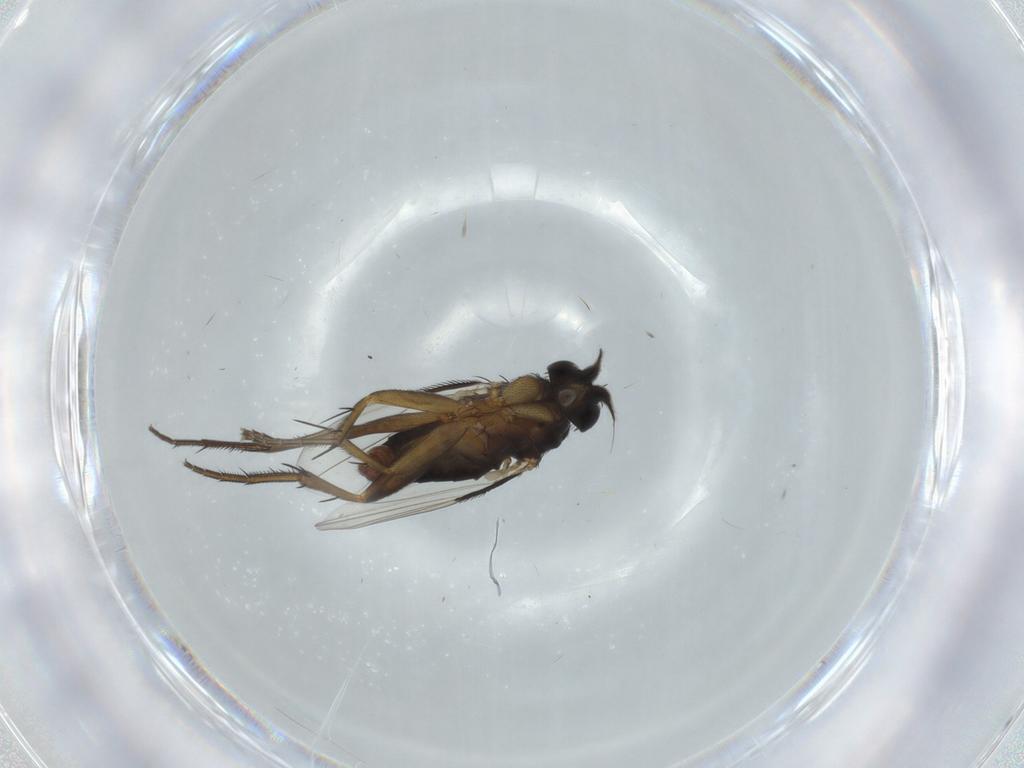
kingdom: Animalia
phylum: Arthropoda
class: Insecta
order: Diptera
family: Phoridae
